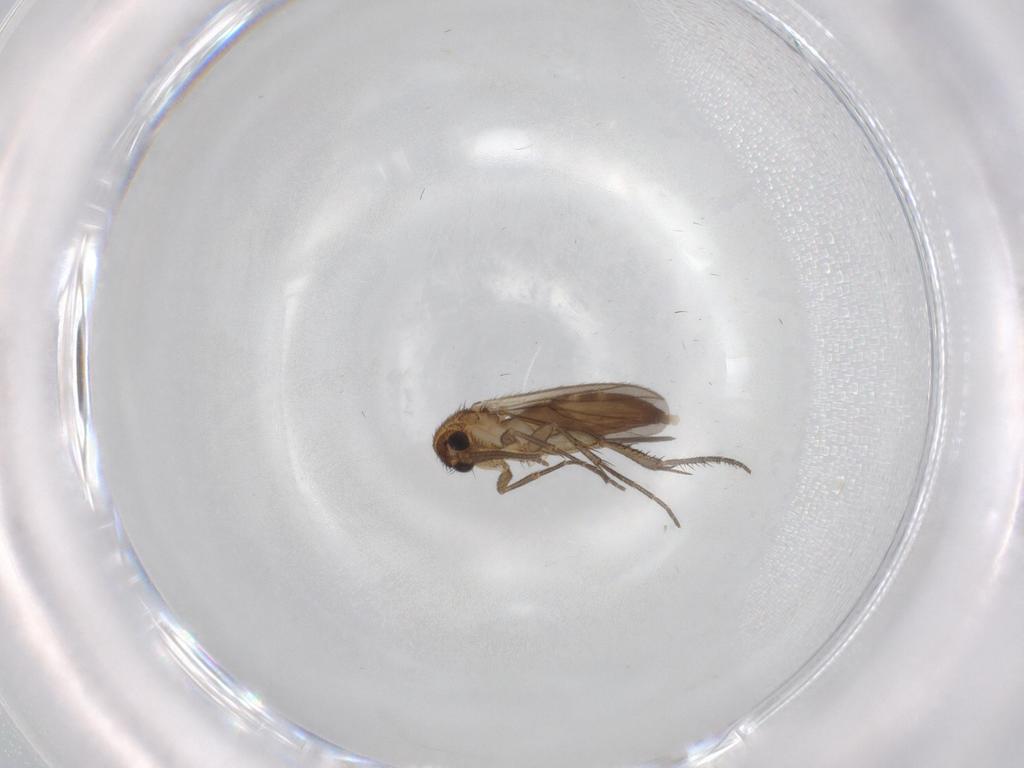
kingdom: Animalia
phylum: Arthropoda
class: Insecta
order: Diptera
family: Mycetophilidae
